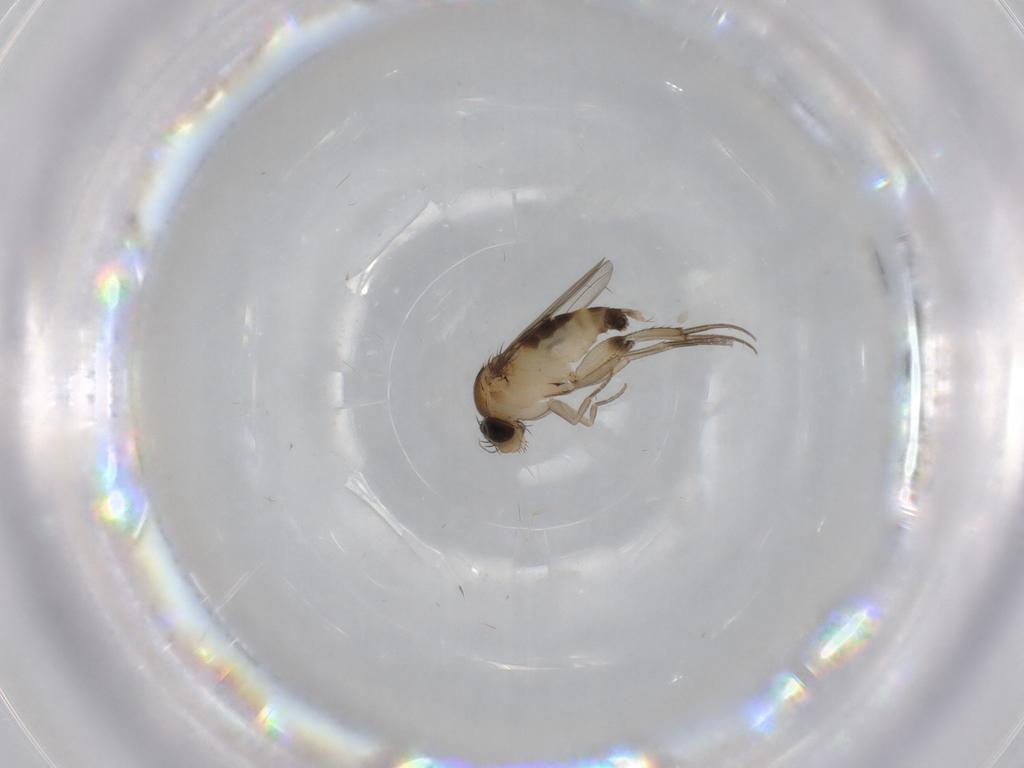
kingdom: Animalia
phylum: Arthropoda
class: Insecta
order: Diptera
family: Phoridae
